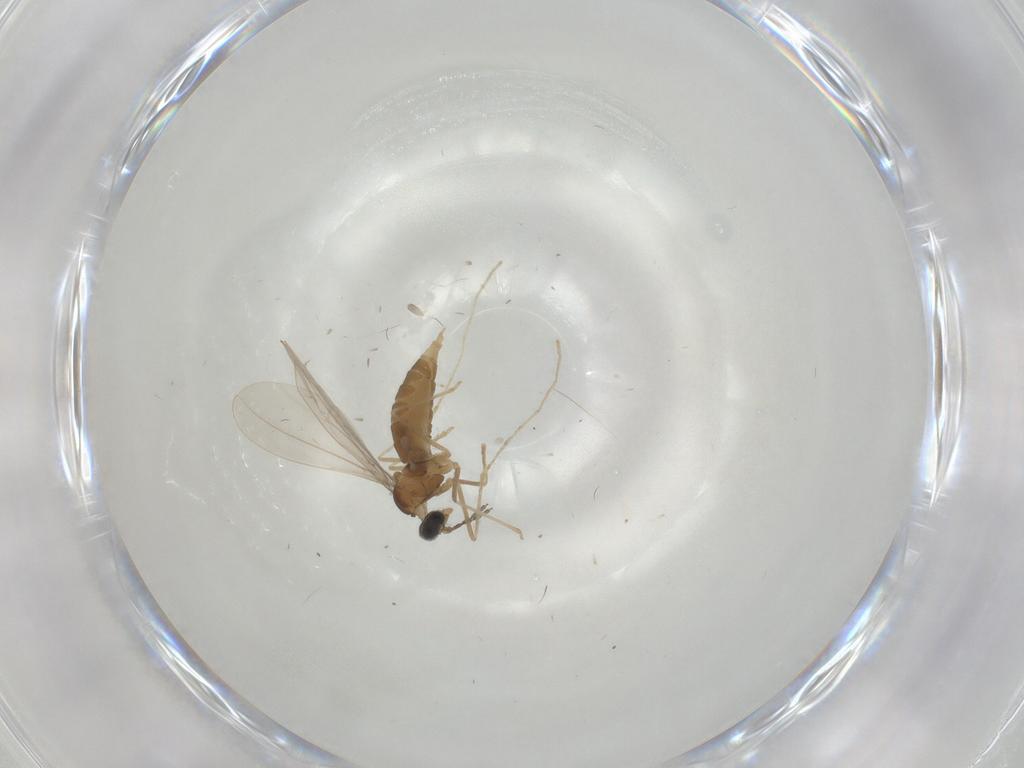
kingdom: Animalia
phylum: Arthropoda
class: Insecta
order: Diptera
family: Cecidomyiidae
